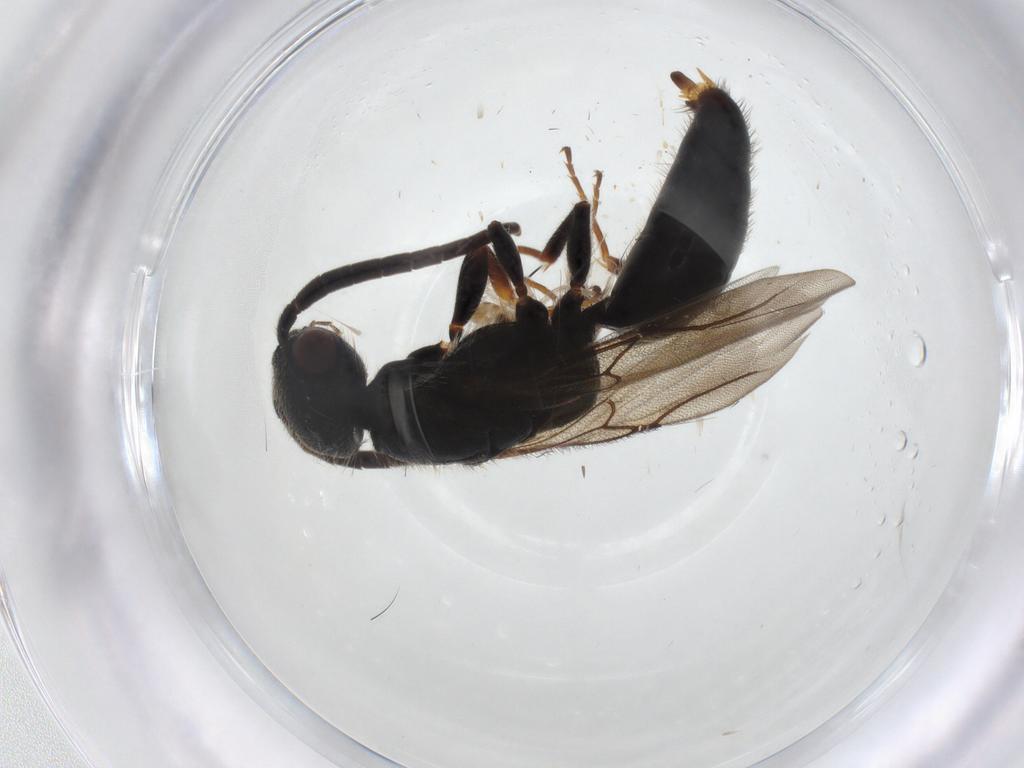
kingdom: Animalia
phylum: Arthropoda
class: Insecta
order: Hymenoptera
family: Bethylidae
